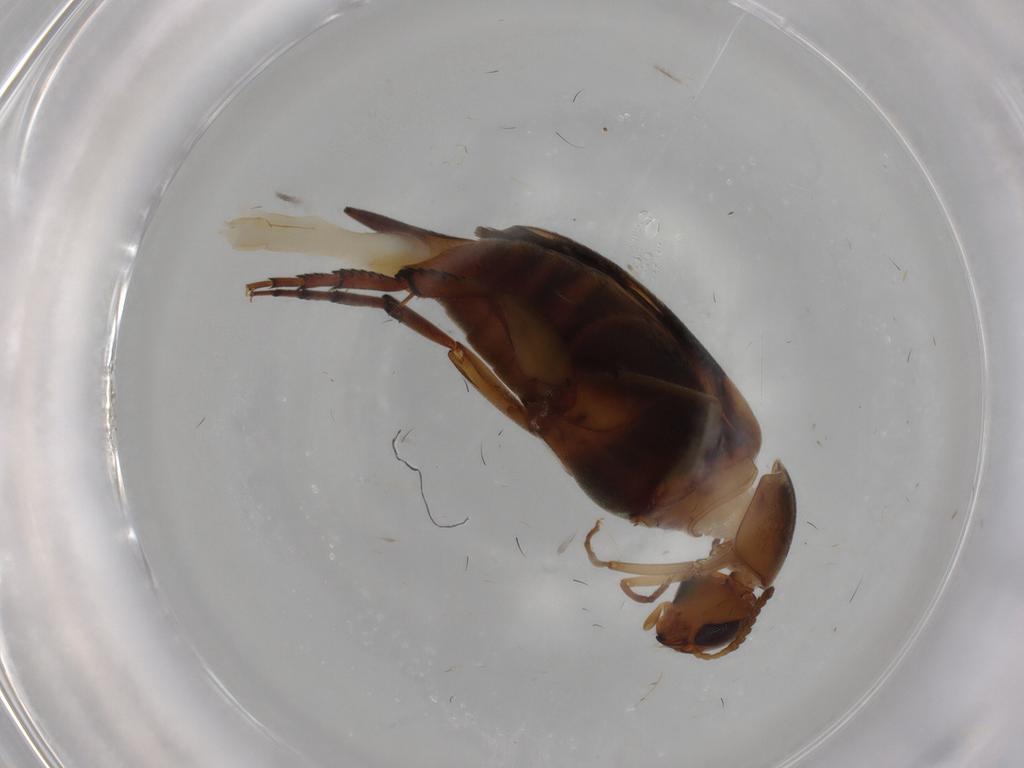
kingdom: Animalia
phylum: Arthropoda
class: Insecta
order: Coleoptera
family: Mordellidae
